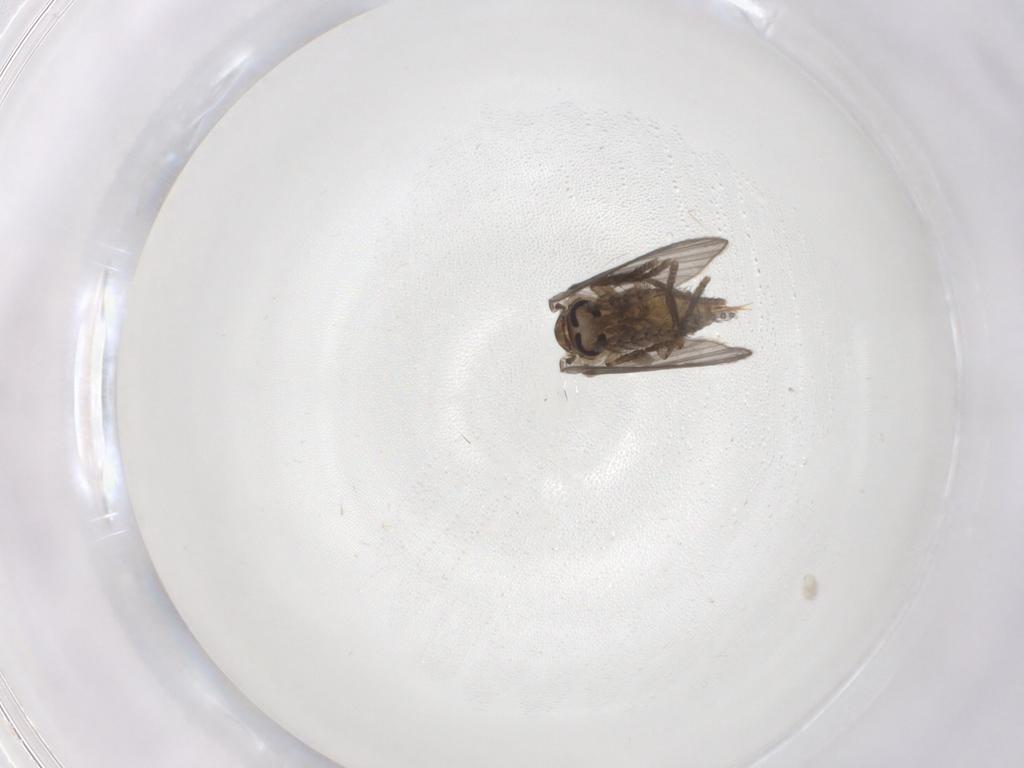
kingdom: Animalia
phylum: Arthropoda
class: Insecta
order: Diptera
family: Psychodidae
